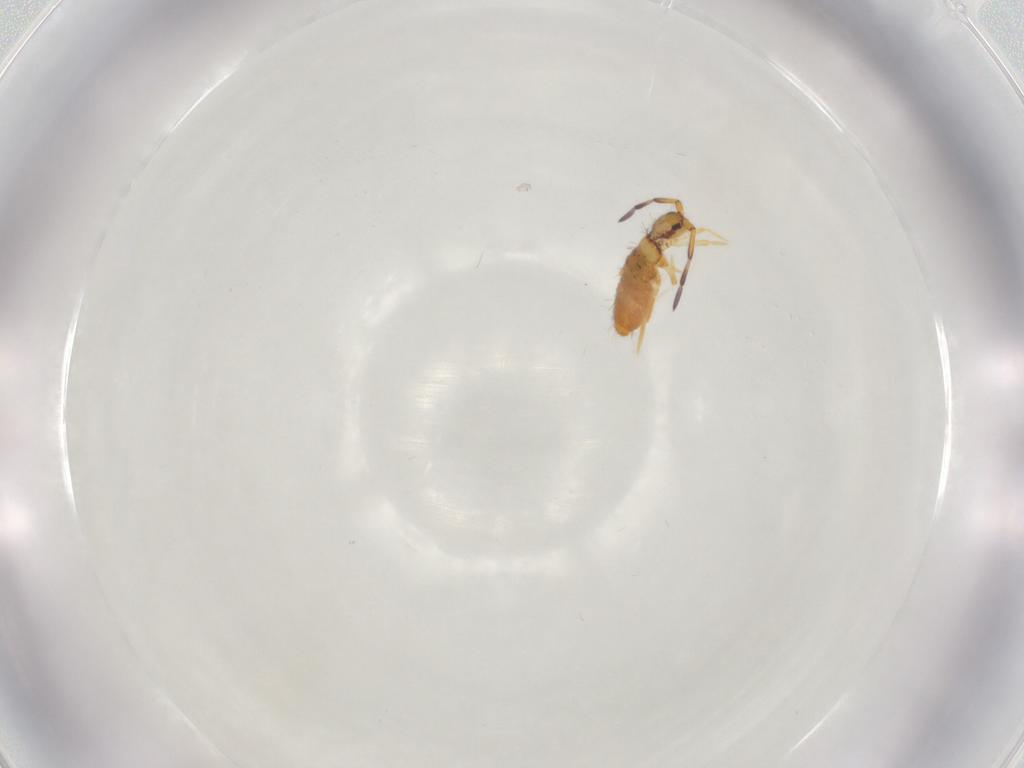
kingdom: Animalia
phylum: Arthropoda
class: Collembola
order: Entomobryomorpha
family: Entomobryidae
